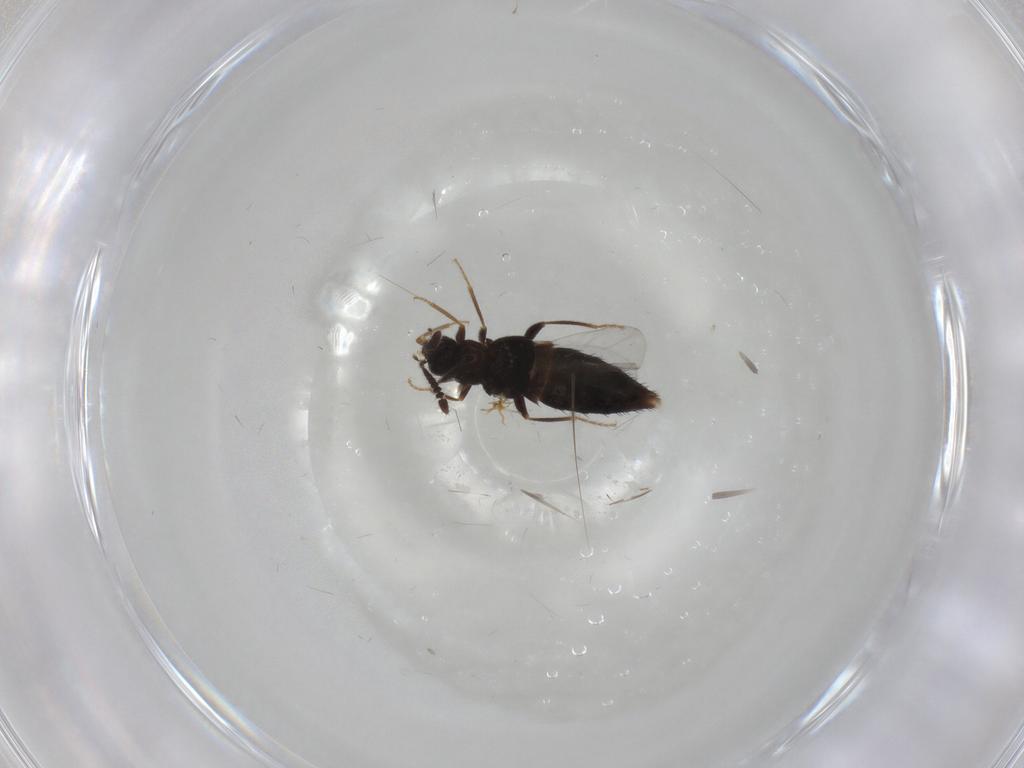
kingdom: Animalia
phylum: Arthropoda
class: Insecta
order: Coleoptera
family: Staphylinidae
